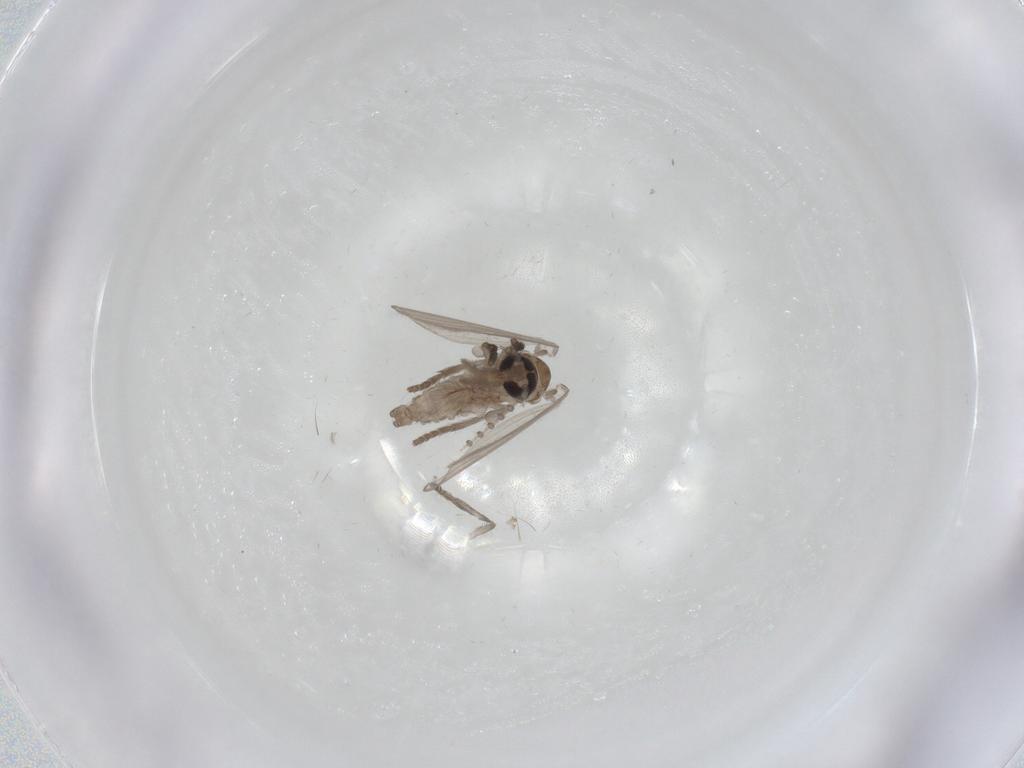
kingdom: Animalia
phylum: Arthropoda
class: Insecta
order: Diptera
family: Psychodidae
